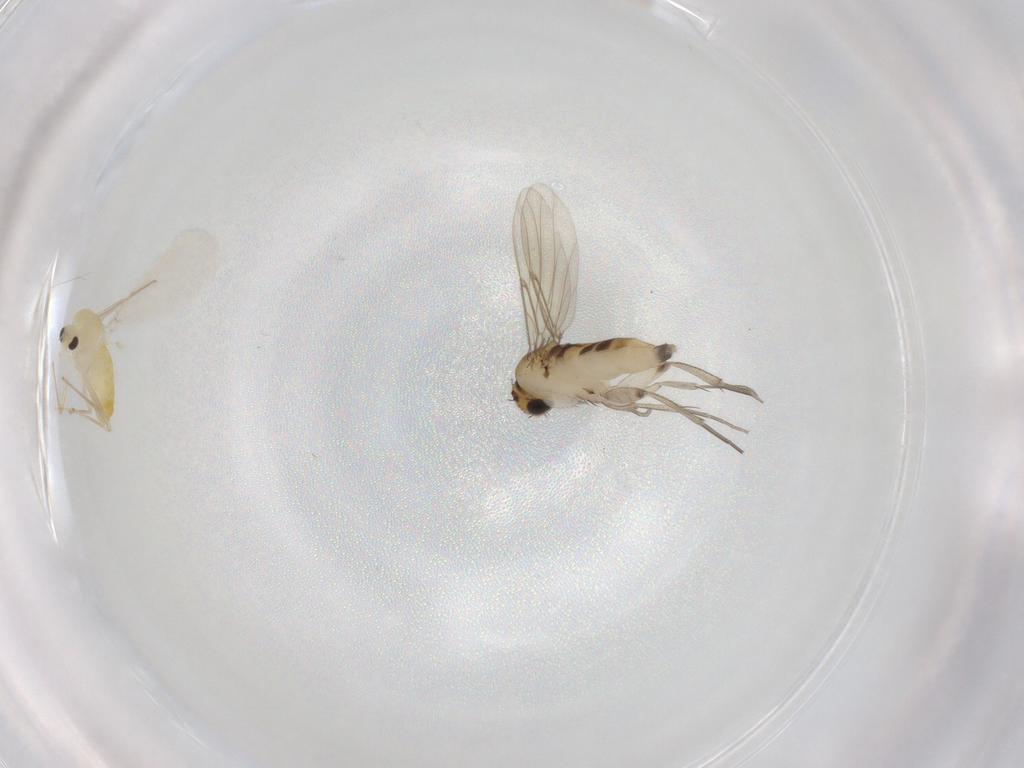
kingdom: Animalia
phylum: Arthropoda
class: Insecta
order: Diptera
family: Chironomidae
